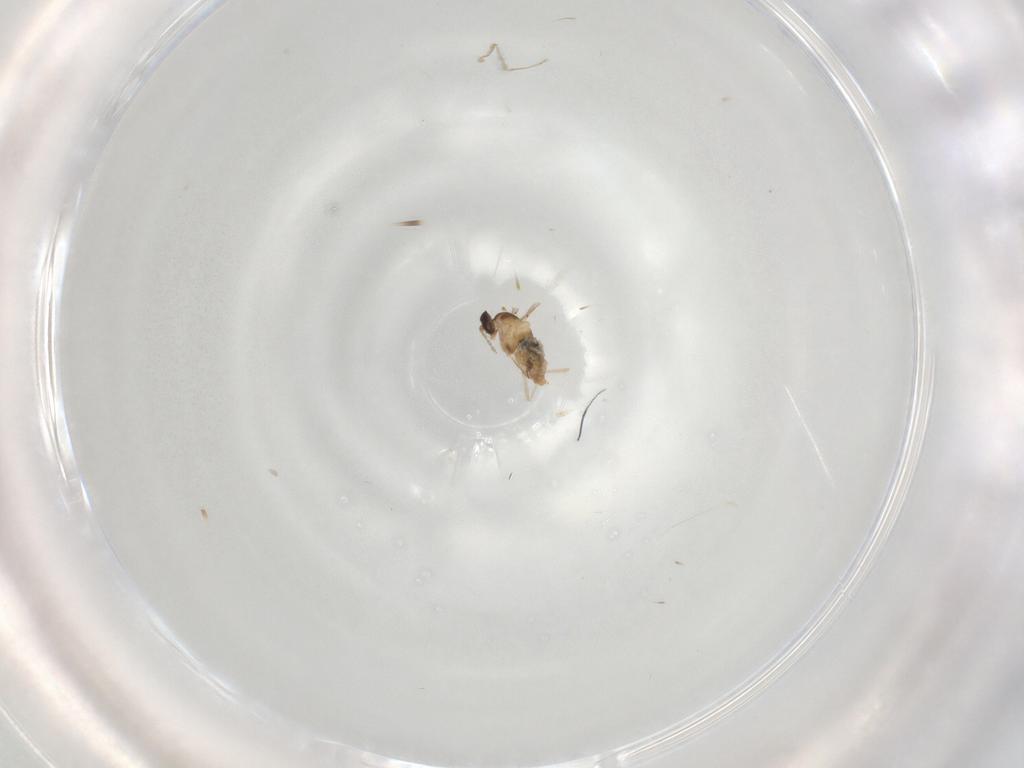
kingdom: Animalia
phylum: Arthropoda
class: Insecta
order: Diptera
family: Cecidomyiidae
